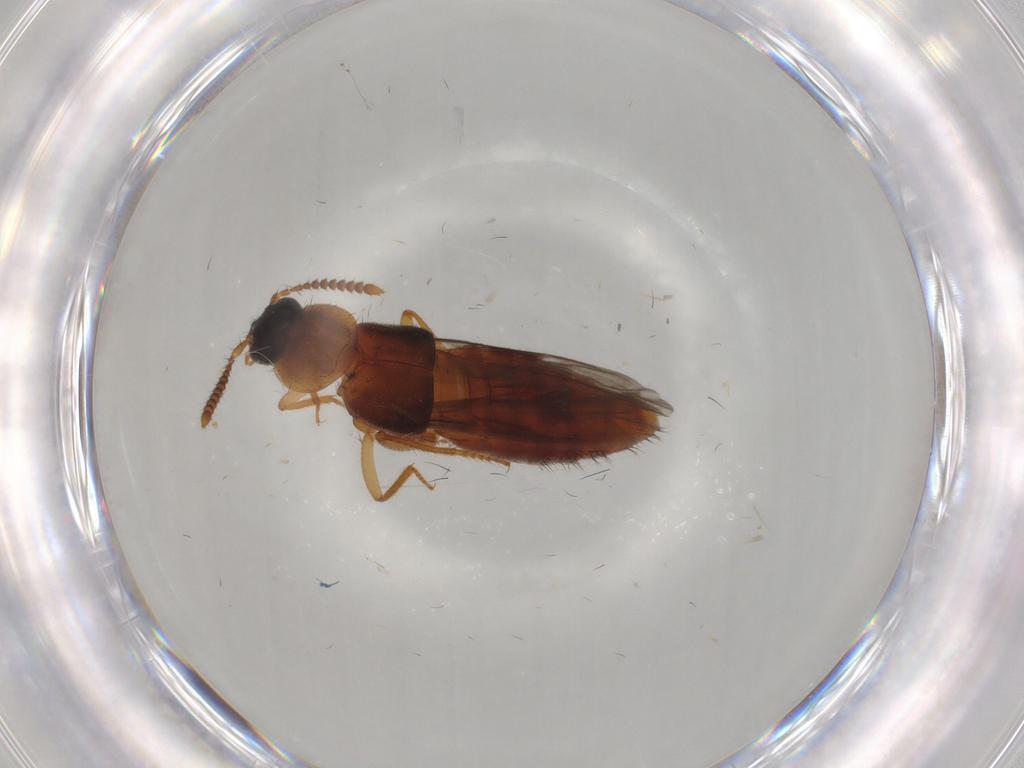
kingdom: Animalia
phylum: Arthropoda
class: Insecta
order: Coleoptera
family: Staphylinidae
